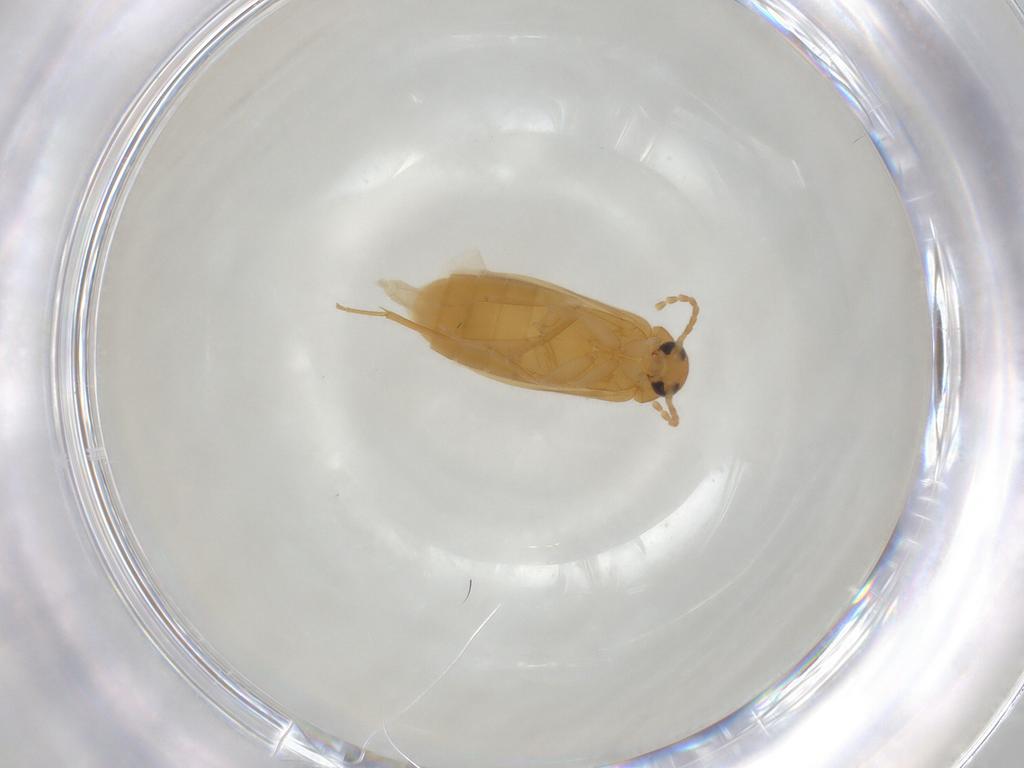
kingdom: Animalia
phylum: Arthropoda
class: Insecta
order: Coleoptera
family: Scraptiidae
